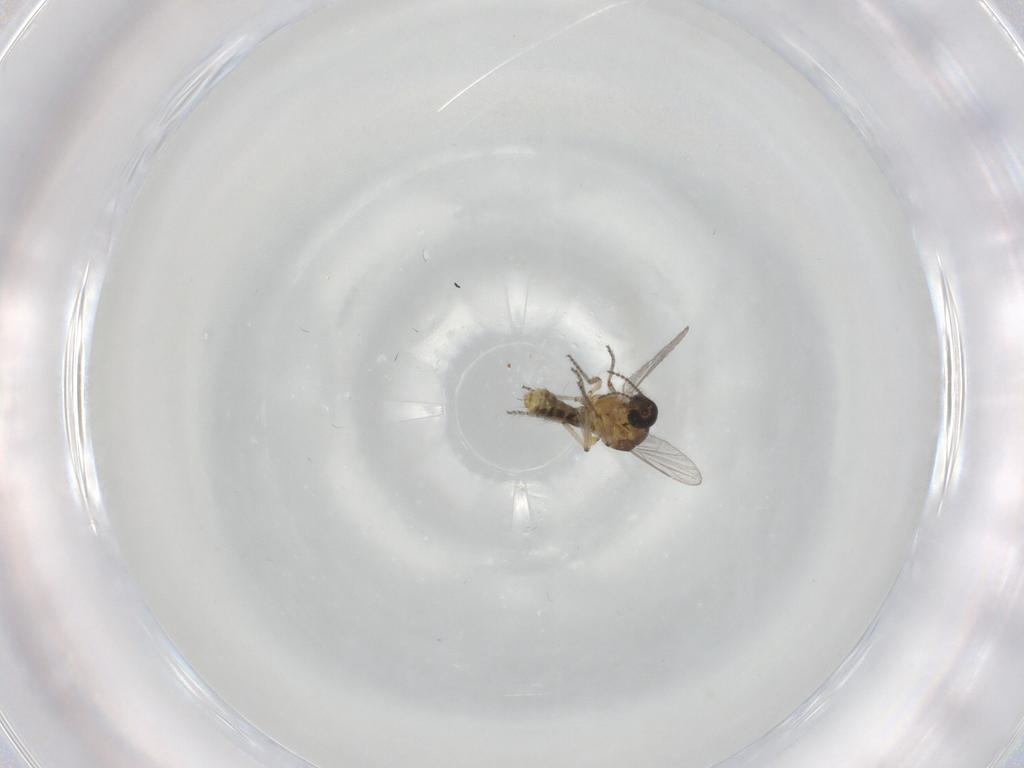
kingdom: Animalia
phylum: Arthropoda
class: Insecta
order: Diptera
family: Ceratopogonidae
